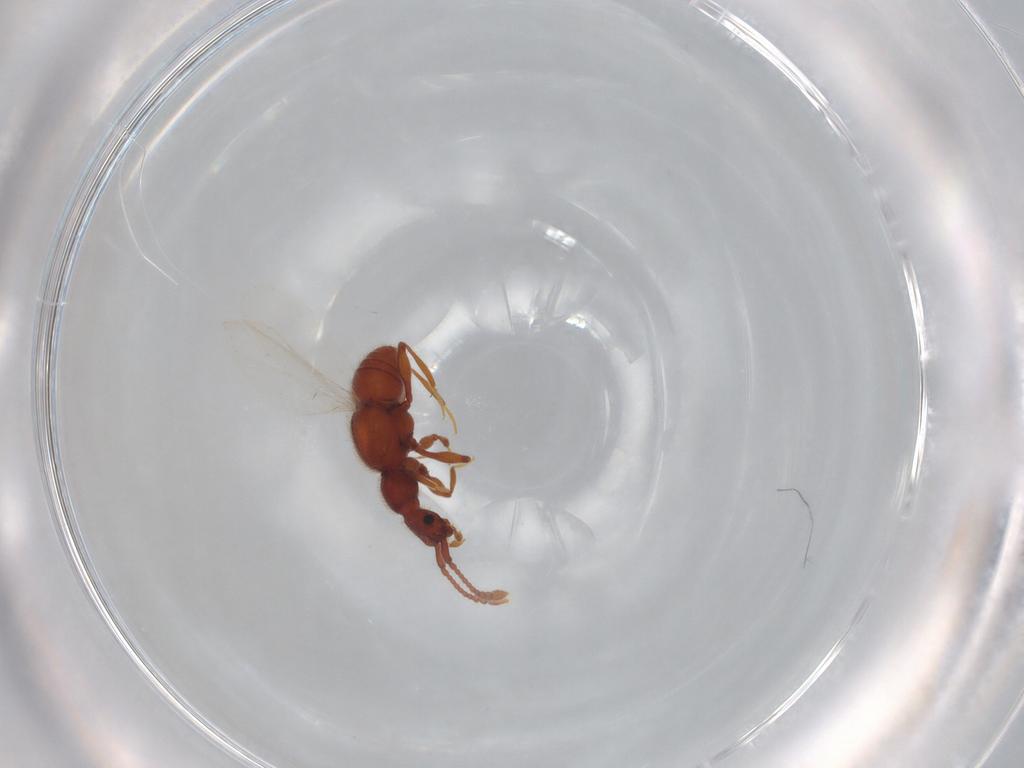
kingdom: Animalia
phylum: Arthropoda
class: Insecta
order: Coleoptera
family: Staphylinidae
